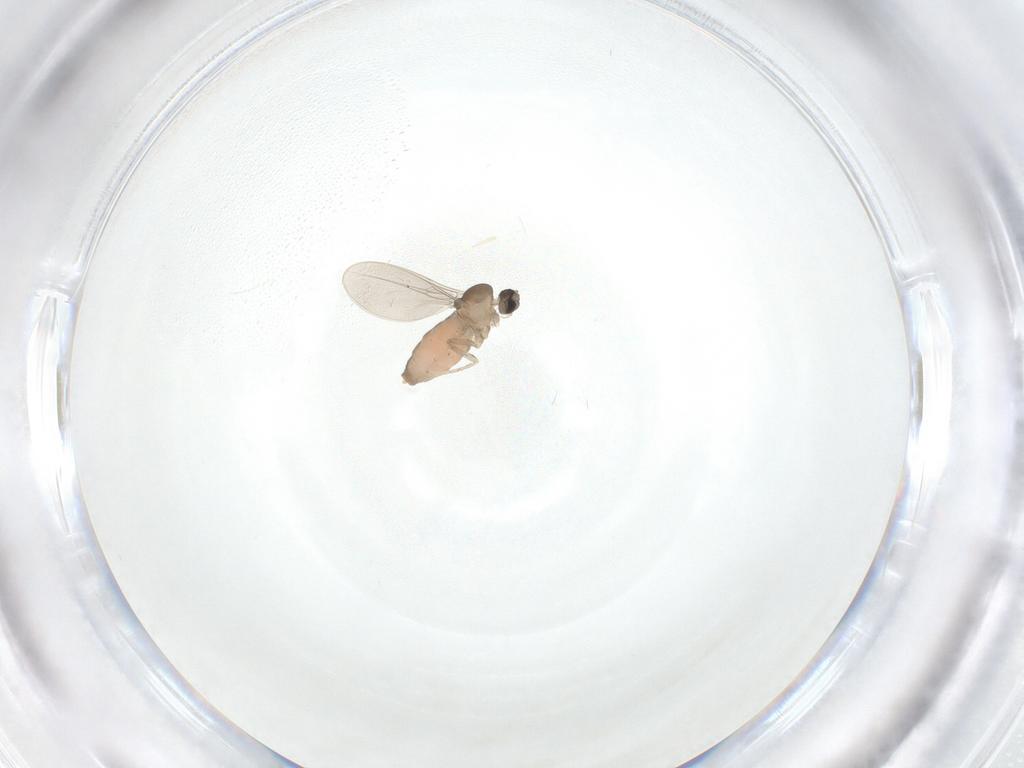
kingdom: Animalia
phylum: Arthropoda
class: Insecta
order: Diptera
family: Cecidomyiidae
